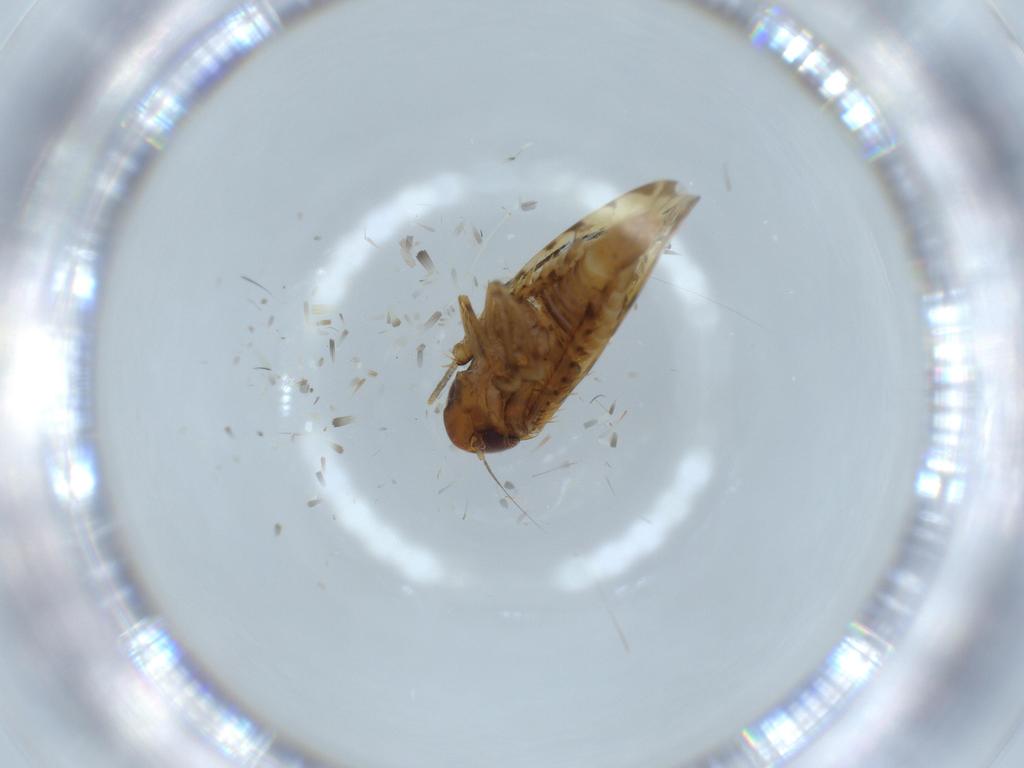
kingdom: Animalia
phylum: Arthropoda
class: Insecta
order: Hemiptera
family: Cicadellidae
